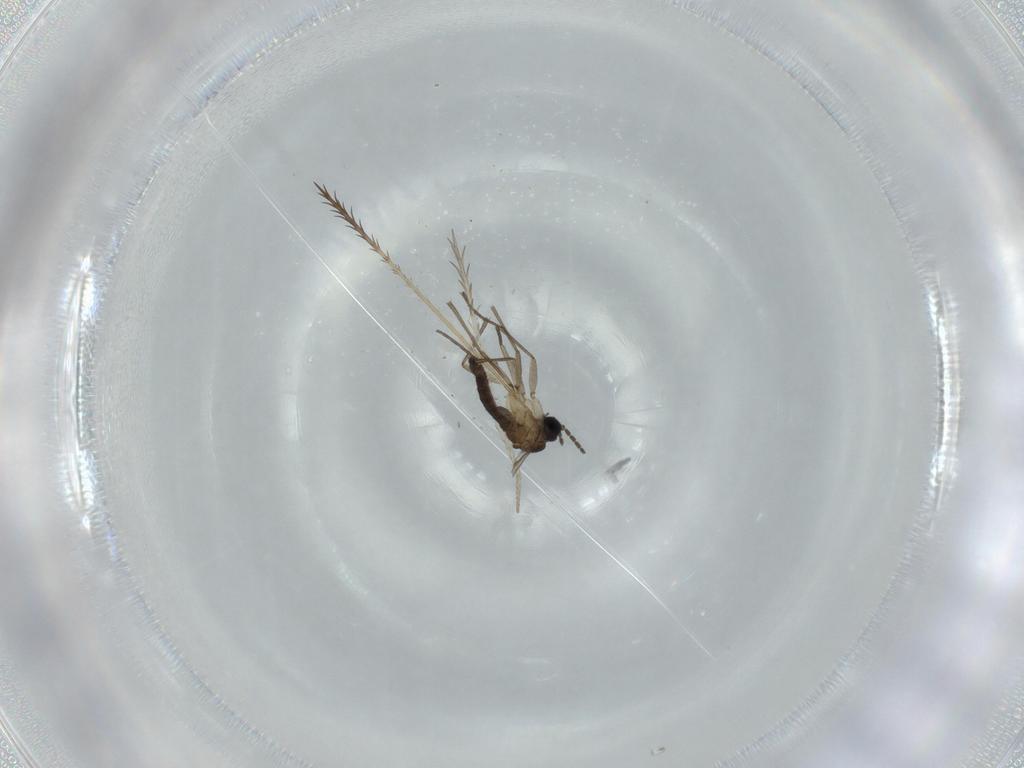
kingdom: Animalia
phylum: Arthropoda
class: Insecta
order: Diptera
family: Sciaridae
